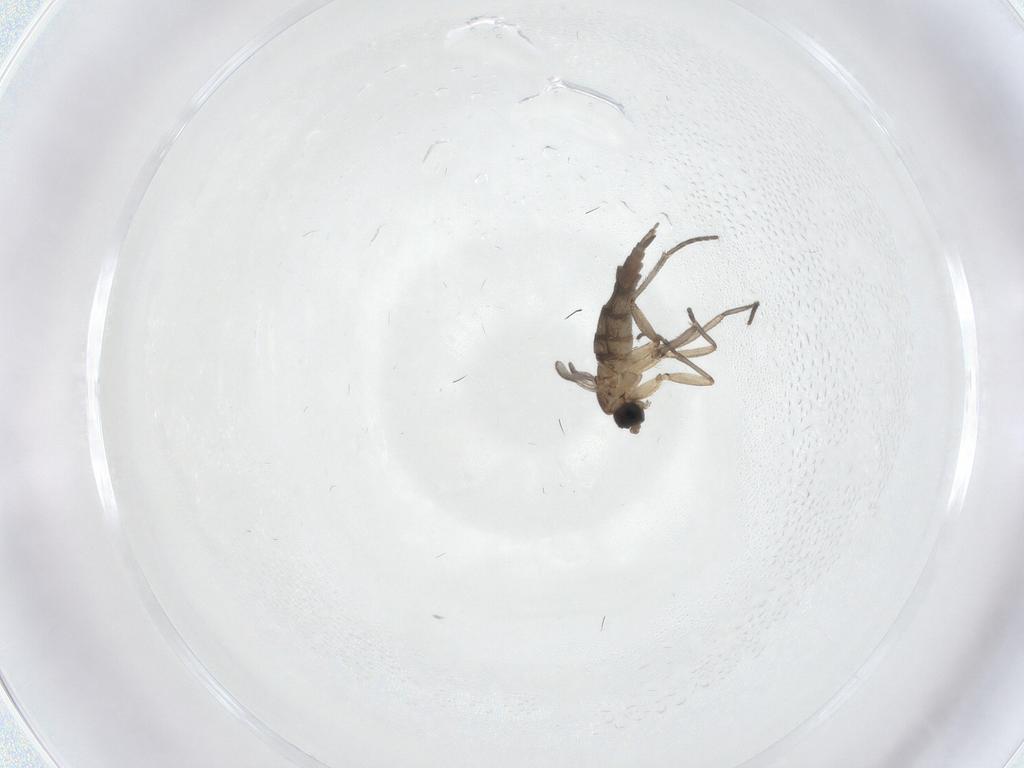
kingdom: Animalia
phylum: Arthropoda
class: Insecta
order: Diptera
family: Sciaridae
